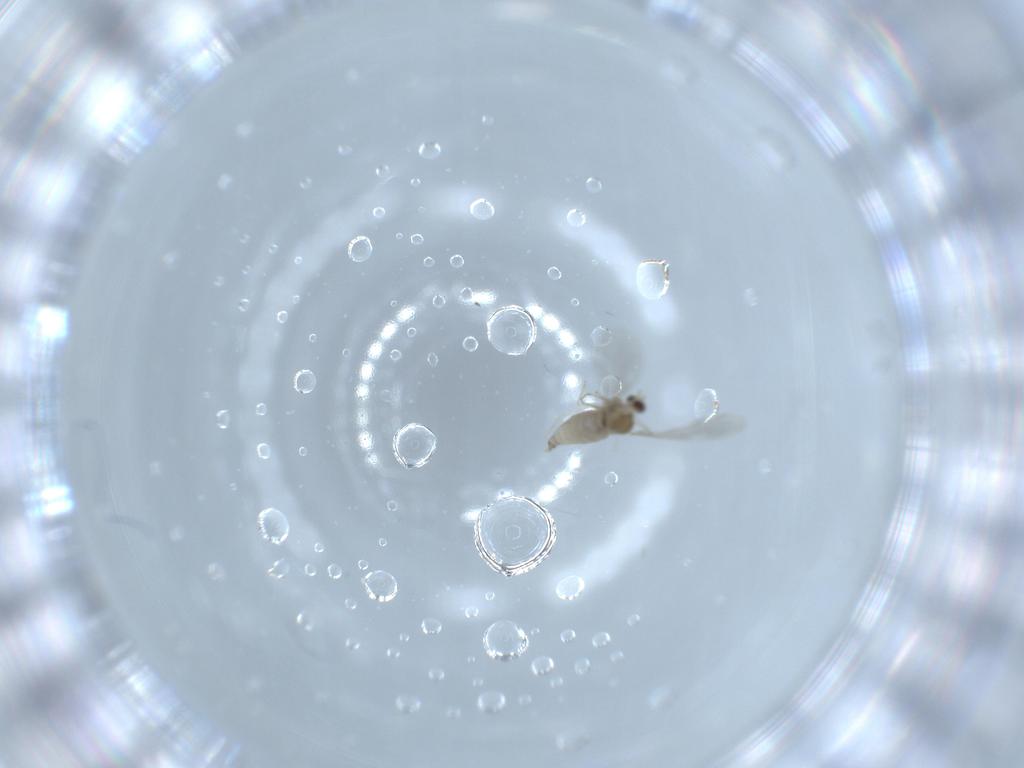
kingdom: Animalia
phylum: Arthropoda
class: Insecta
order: Diptera
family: Cecidomyiidae
